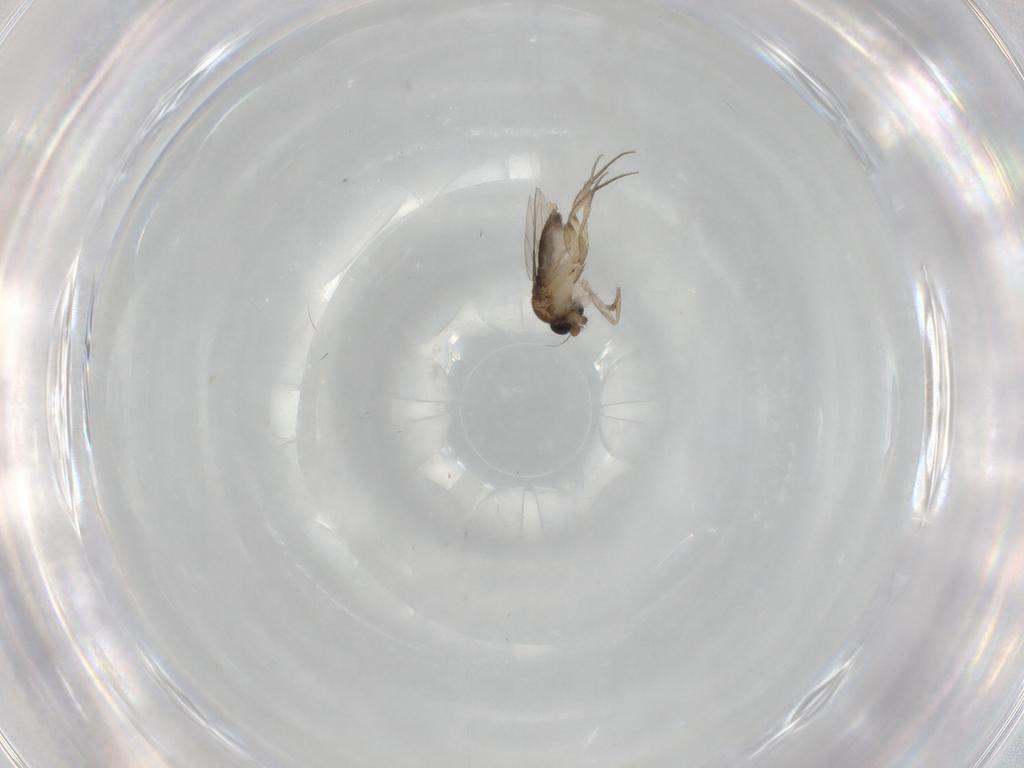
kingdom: Animalia
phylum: Arthropoda
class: Insecta
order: Diptera
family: Phoridae
